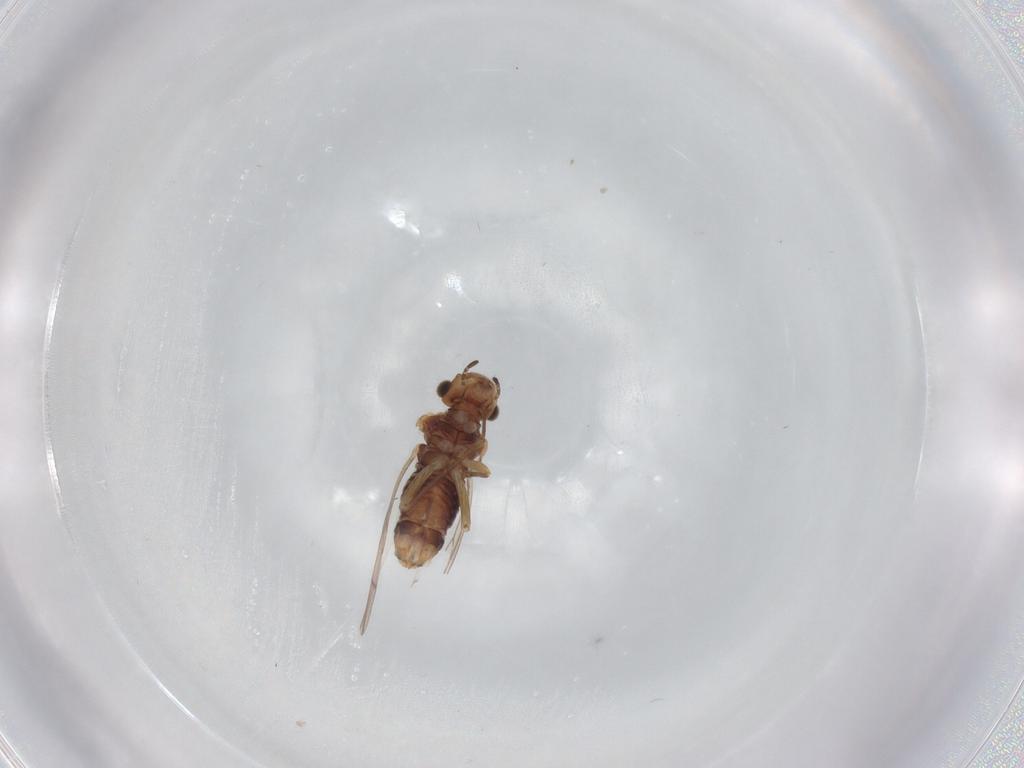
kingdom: Animalia
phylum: Arthropoda
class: Insecta
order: Psocodea
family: Lachesillidae
